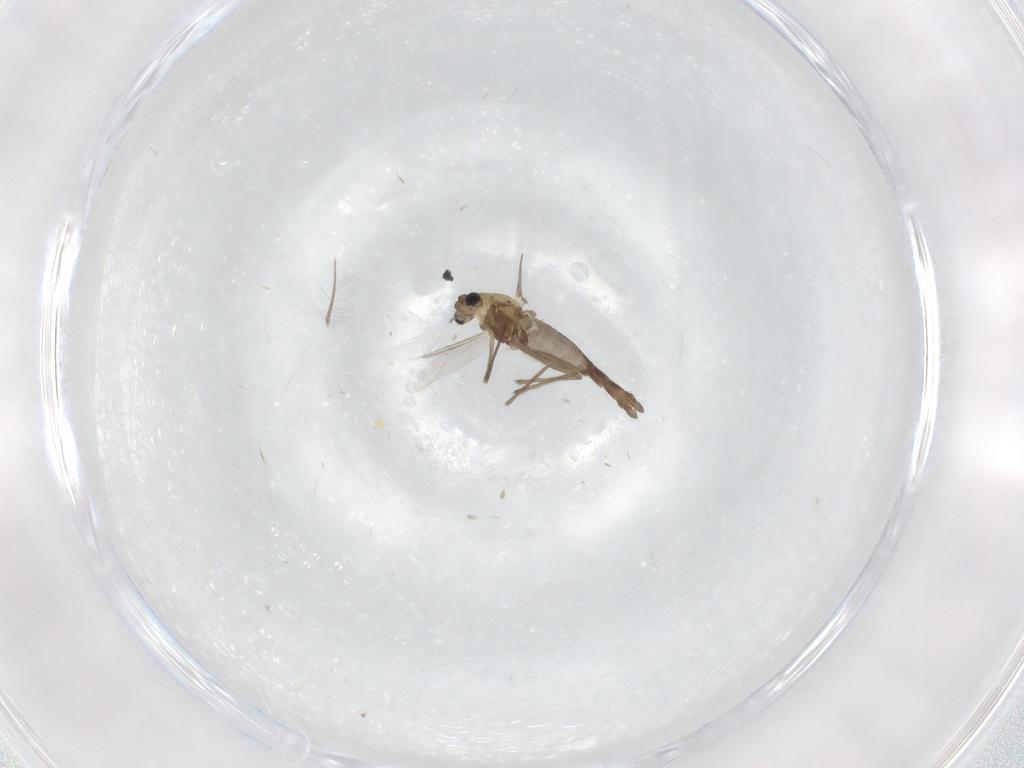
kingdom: Animalia
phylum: Arthropoda
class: Insecta
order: Diptera
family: Chironomidae
